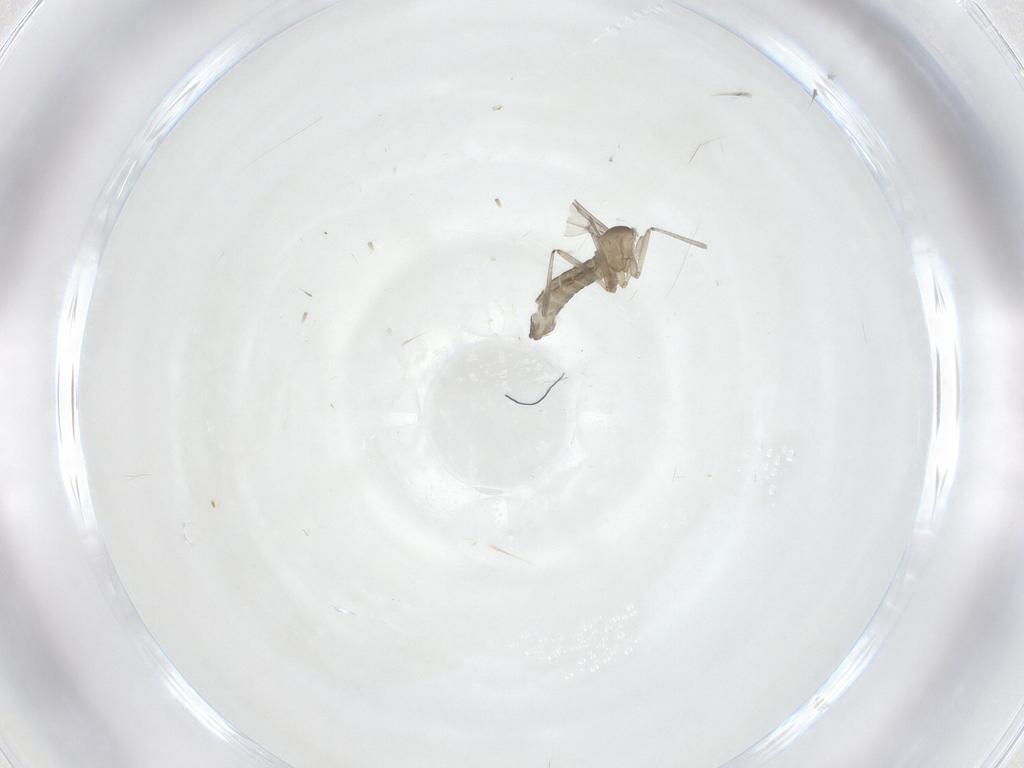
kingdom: Animalia
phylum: Arthropoda
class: Insecta
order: Diptera
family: Cecidomyiidae
